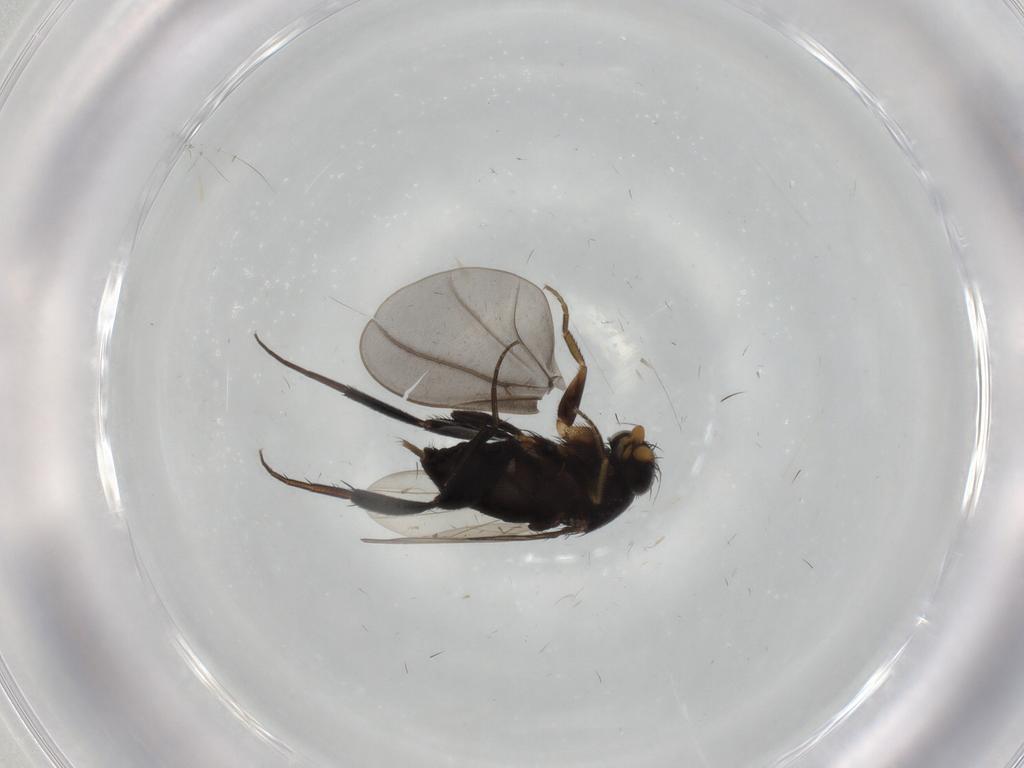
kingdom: Animalia
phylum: Arthropoda
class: Insecta
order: Diptera
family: Phoridae
